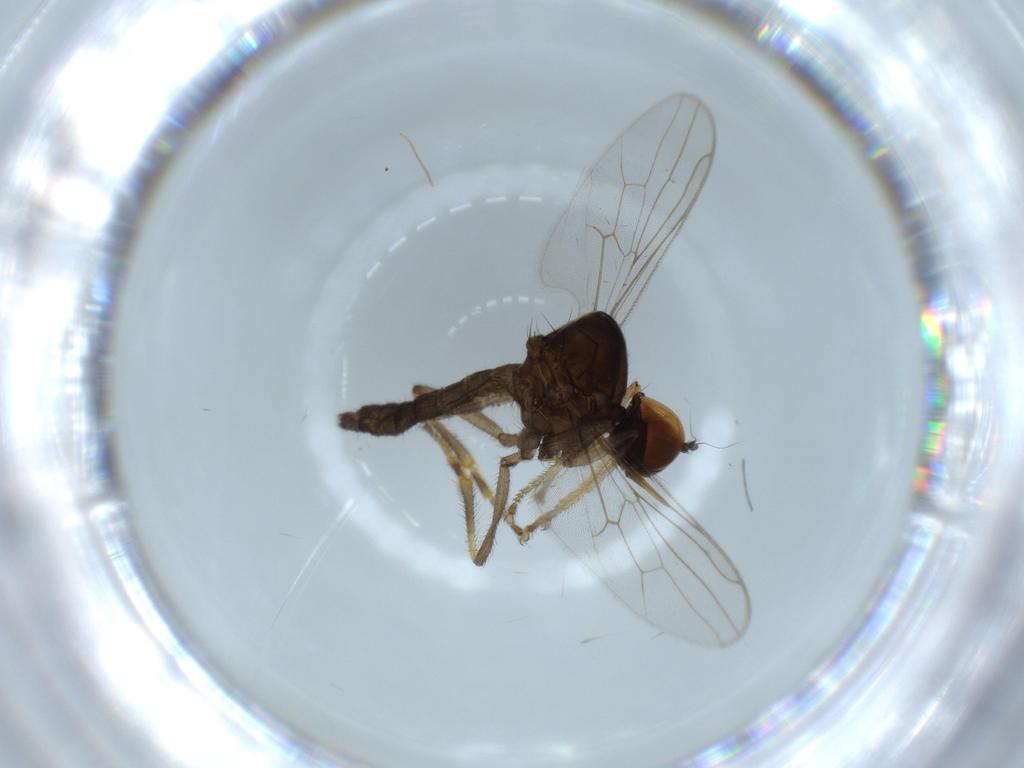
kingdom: Animalia
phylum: Arthropoda
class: Insecta
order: Diptera
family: Hybotidae
